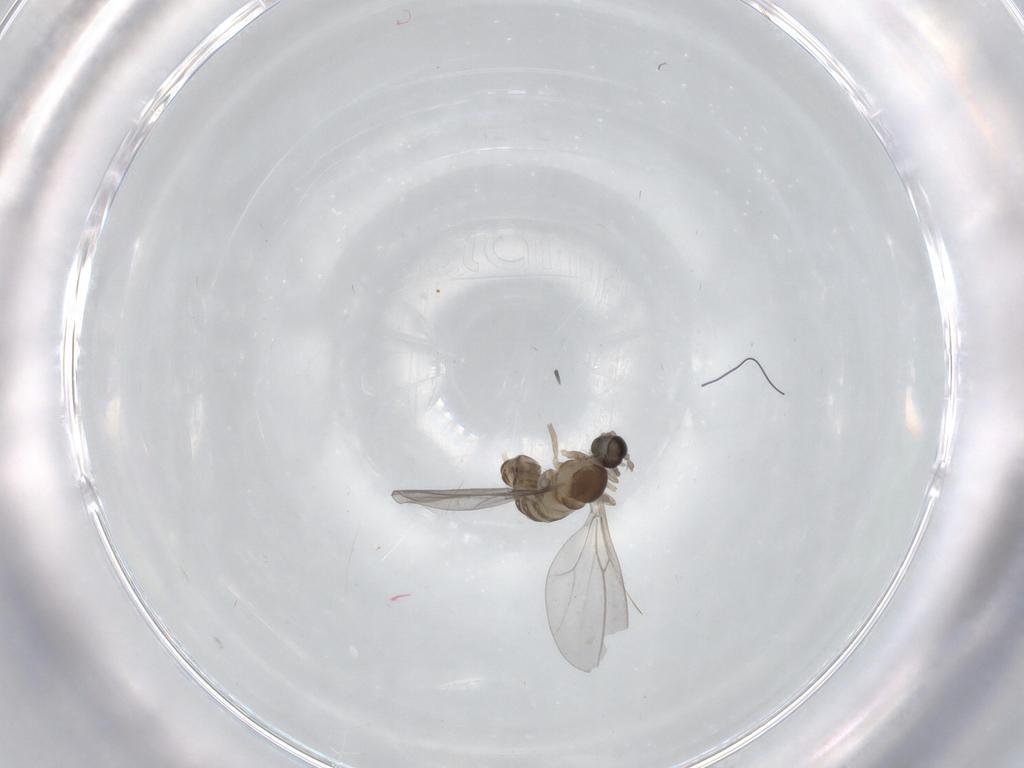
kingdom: Animalia
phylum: Arthropoda
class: Insecta
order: Diptera
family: Cecidomyiidae
